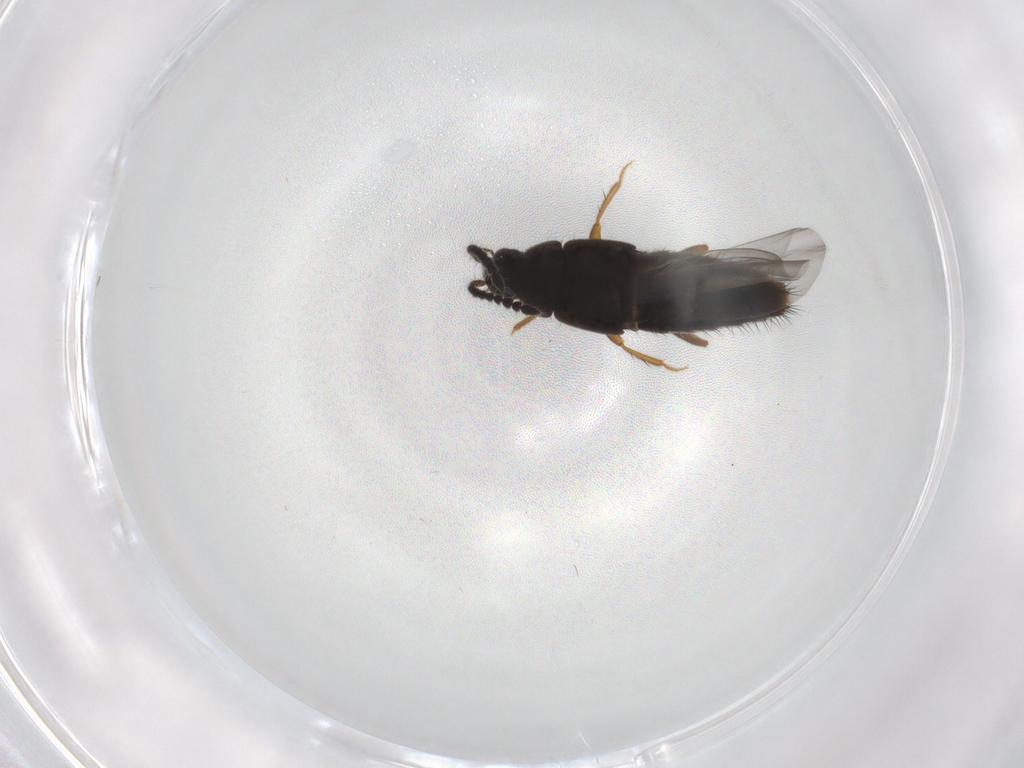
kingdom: Animalia
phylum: Arthropoda
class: Insecta
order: Coleoptera
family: Staphylinidae
